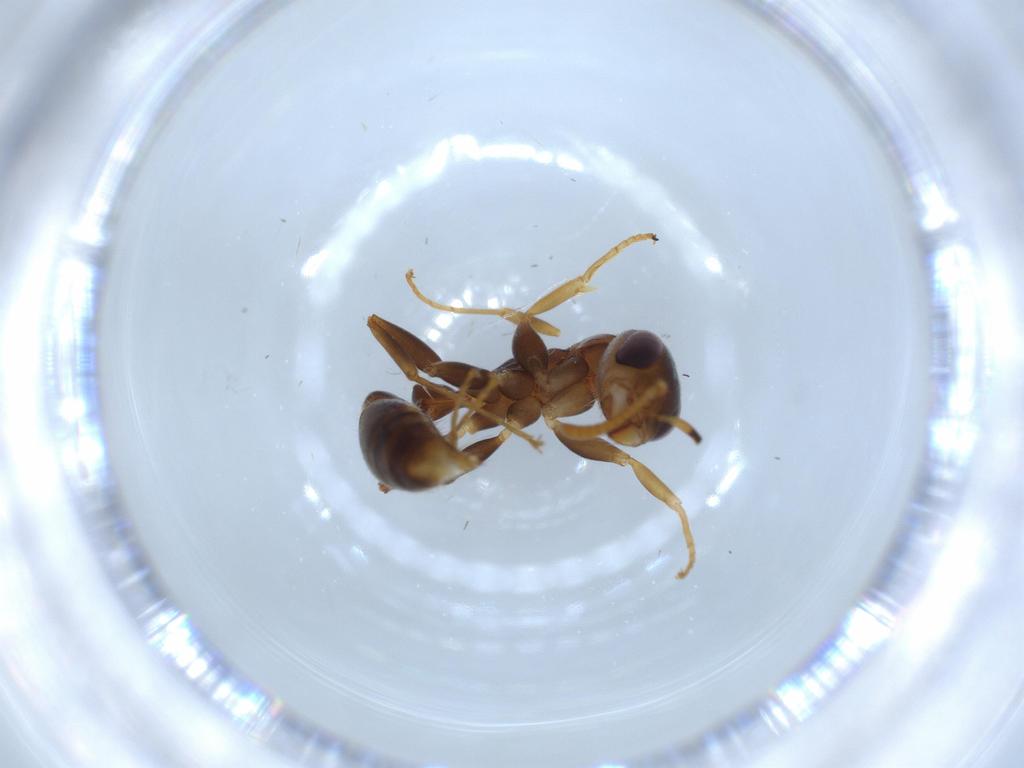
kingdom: Animalia
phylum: Arthropoda
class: Insecta
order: Hymenoptera
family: Formicidae
